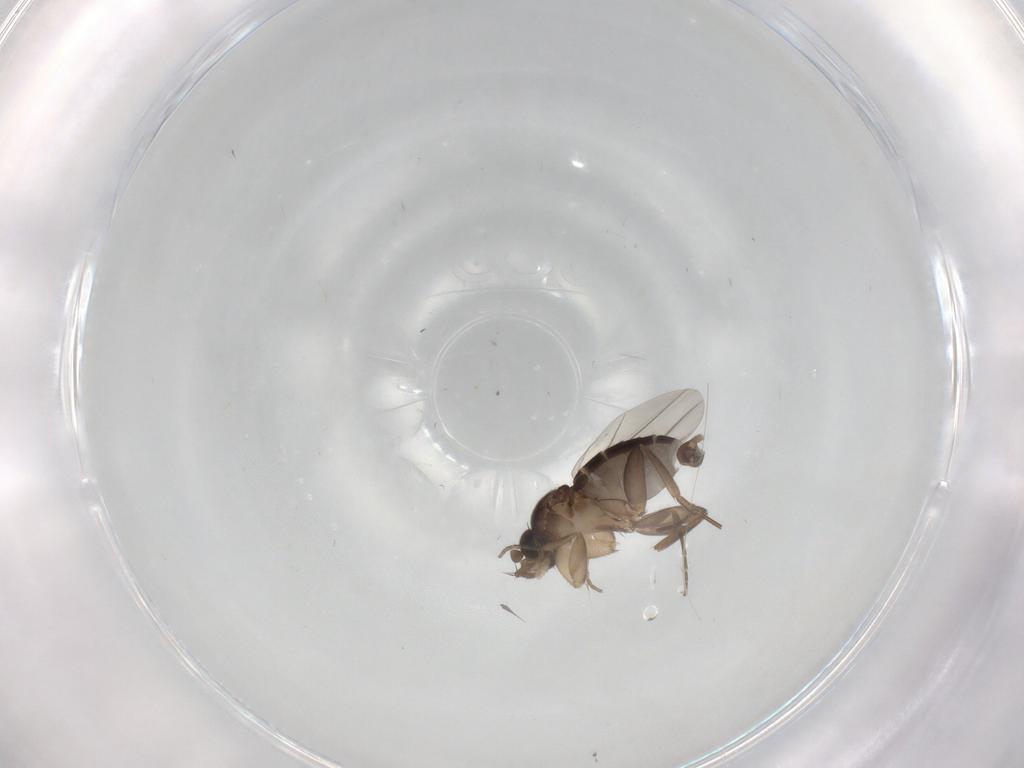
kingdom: Animalia
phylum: Arthropoda
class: Insecta
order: Diptera
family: Phoridae
